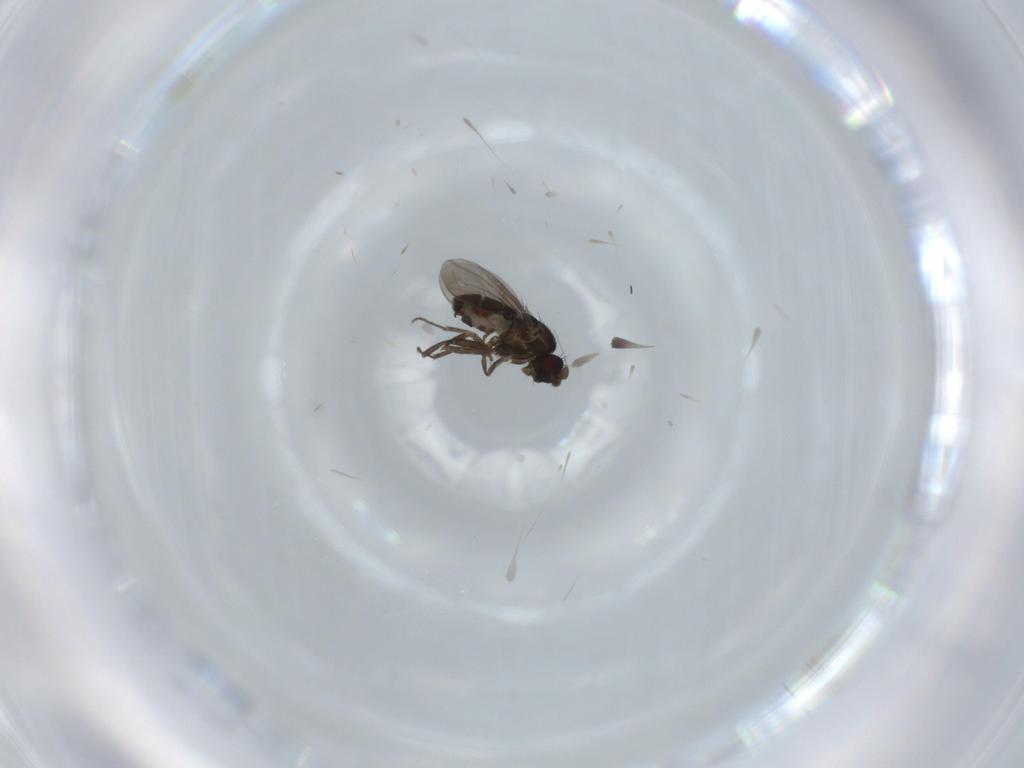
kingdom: Animalia
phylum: Arthropoda
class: Insecta
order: Diptera
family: Sphaeroceridae
